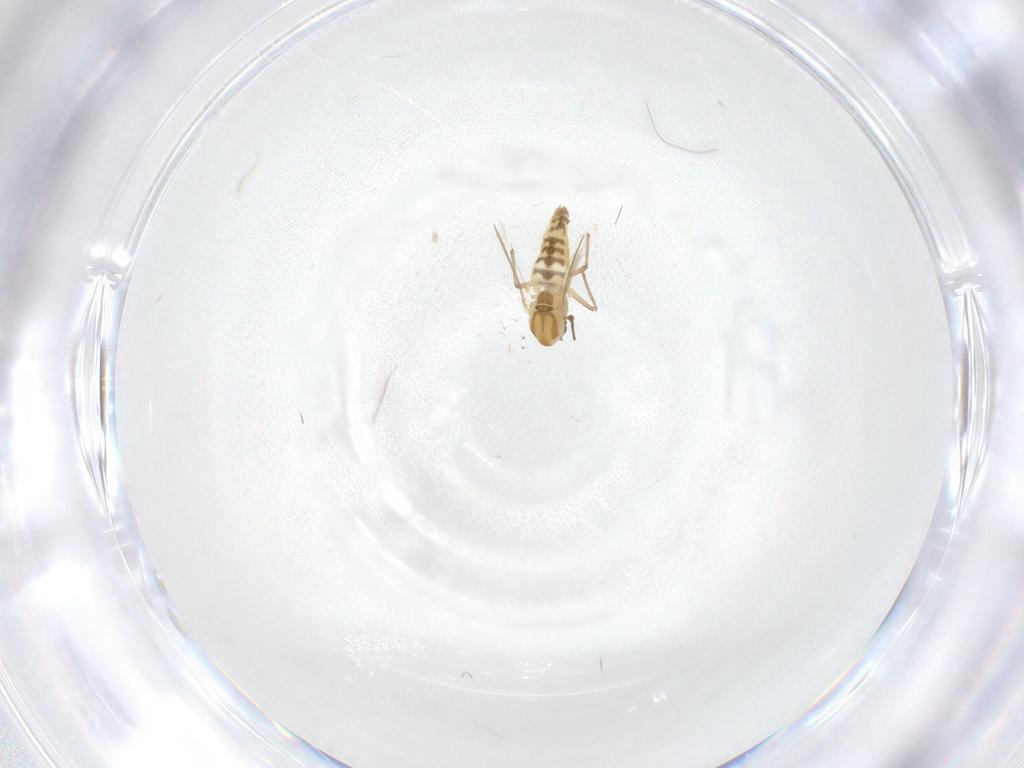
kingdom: Animalia
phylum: Arthropoda
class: Insecta
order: Diptera
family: Chironomidae
